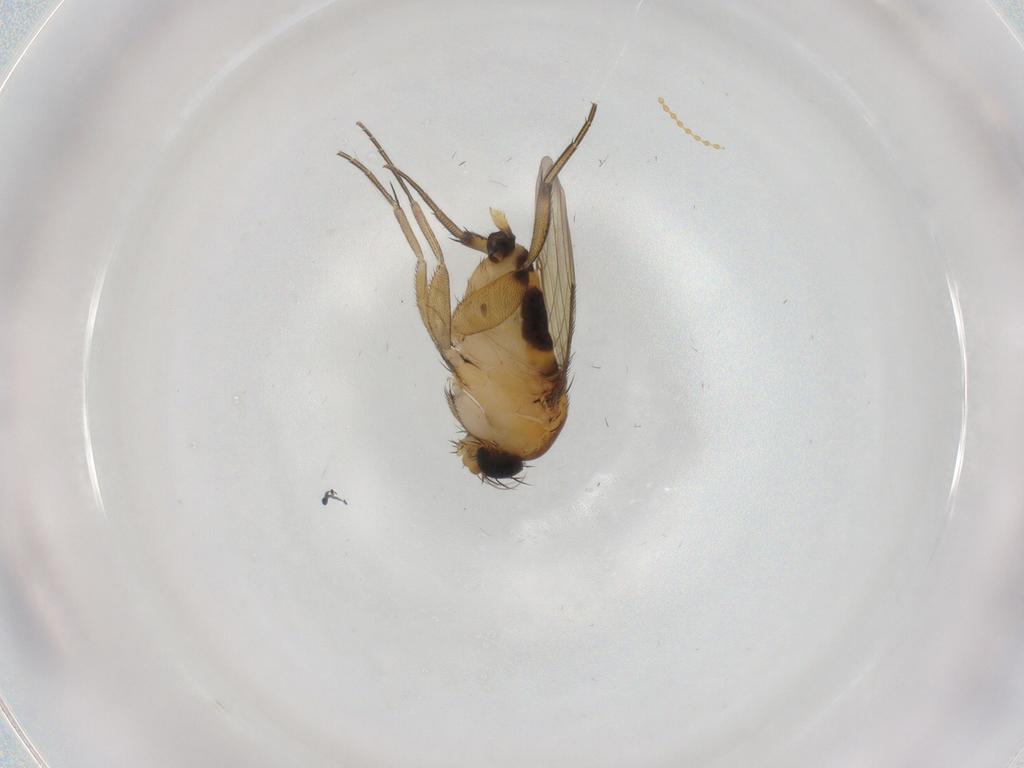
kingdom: Animalia
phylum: Arthropoda
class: Insecta
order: Diptera
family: Phoridae
